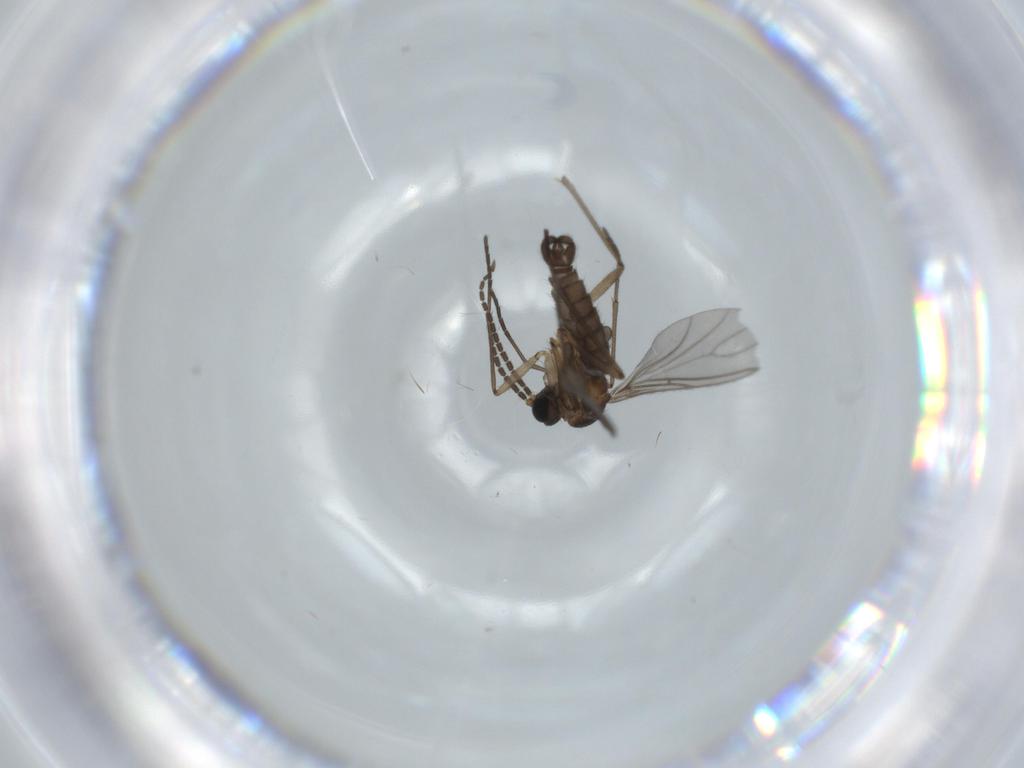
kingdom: Animalia
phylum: Arthropoda
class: Insecta
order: Diptera
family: Sciaridae
